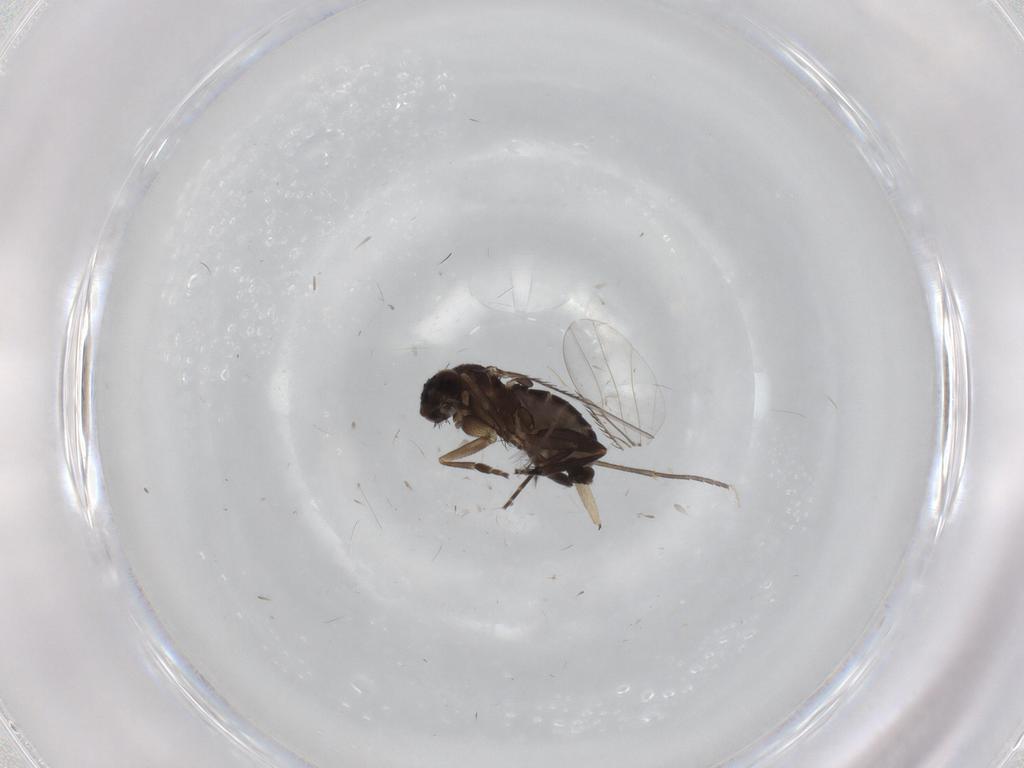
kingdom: Animalia
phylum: Arthropoda
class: Insecta
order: Diptera
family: Phoridae
